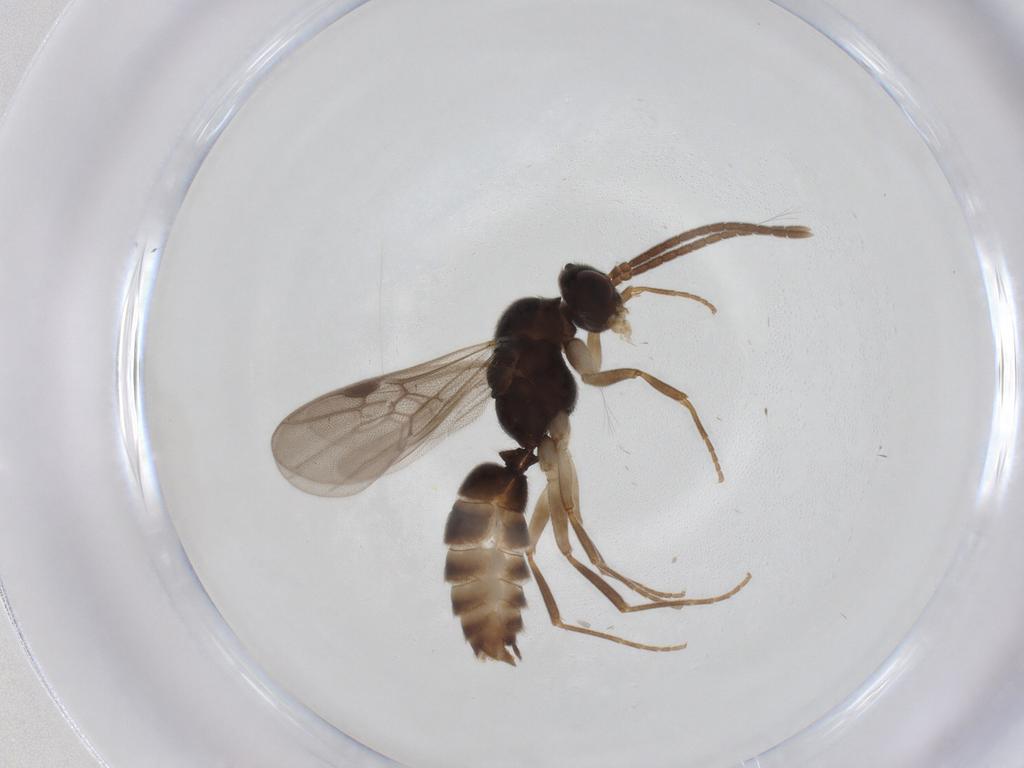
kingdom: Animalia
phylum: Arthropoda
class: Insecta
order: Hymenoptera
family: Formicidae
